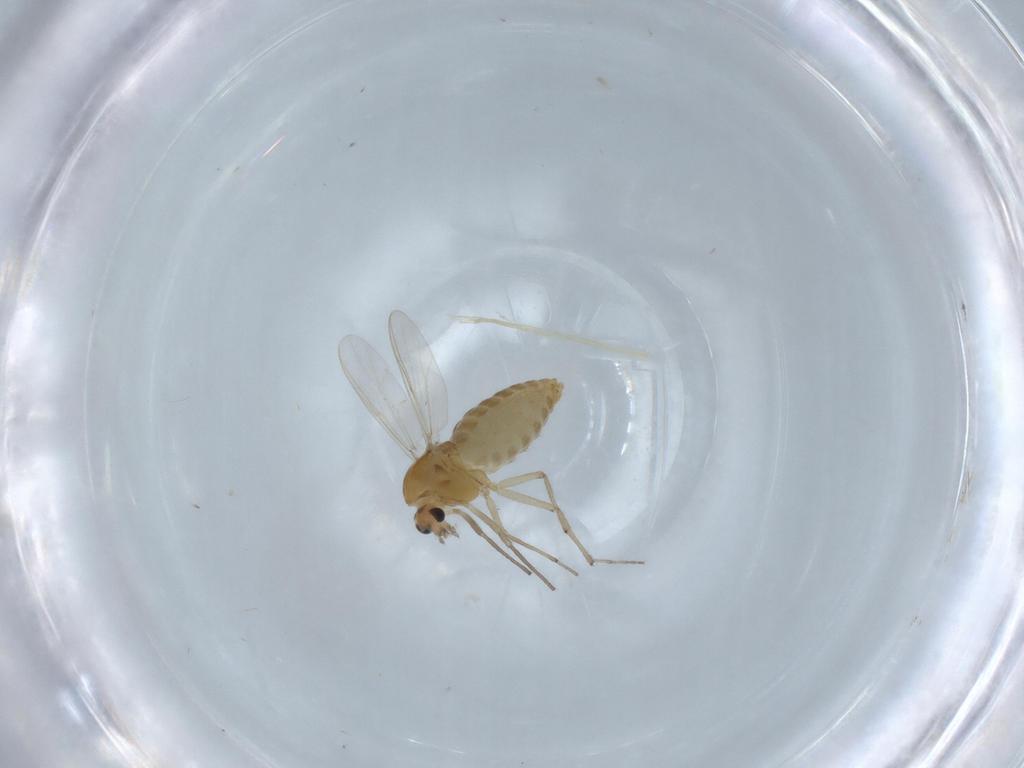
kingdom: Animalia
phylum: Arthropoda
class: Insecta
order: Diptera
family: Chironomidae
